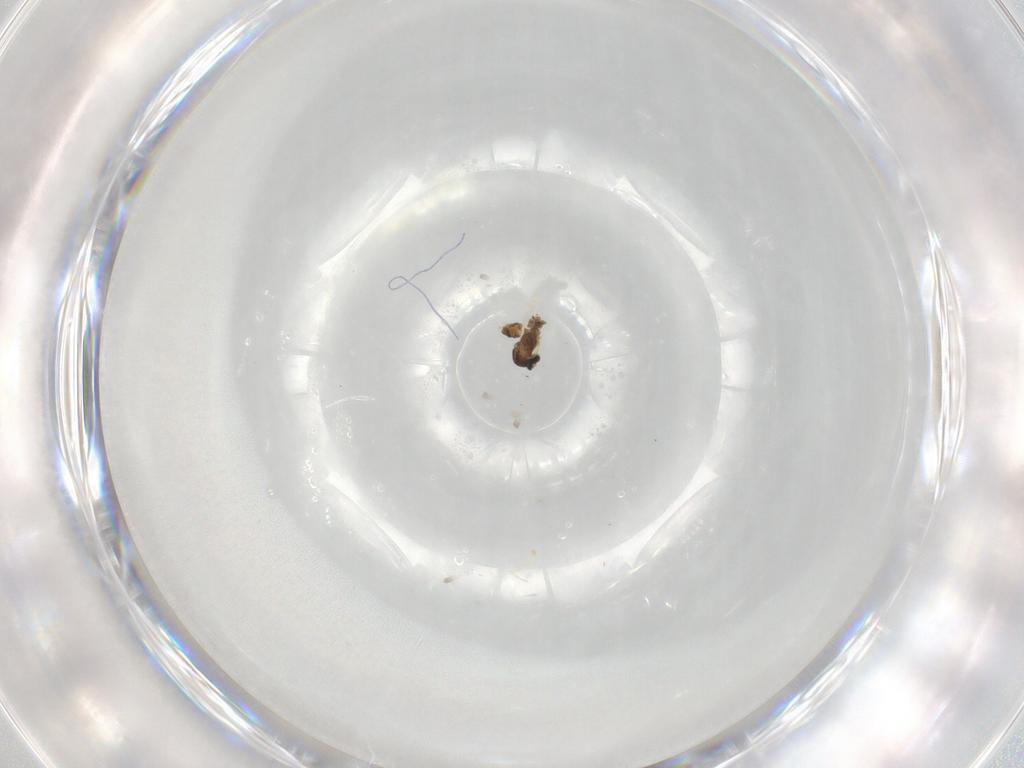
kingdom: Animalia
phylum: Arthropoda
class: Insecta
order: Diptera
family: Cecidomyiidae
